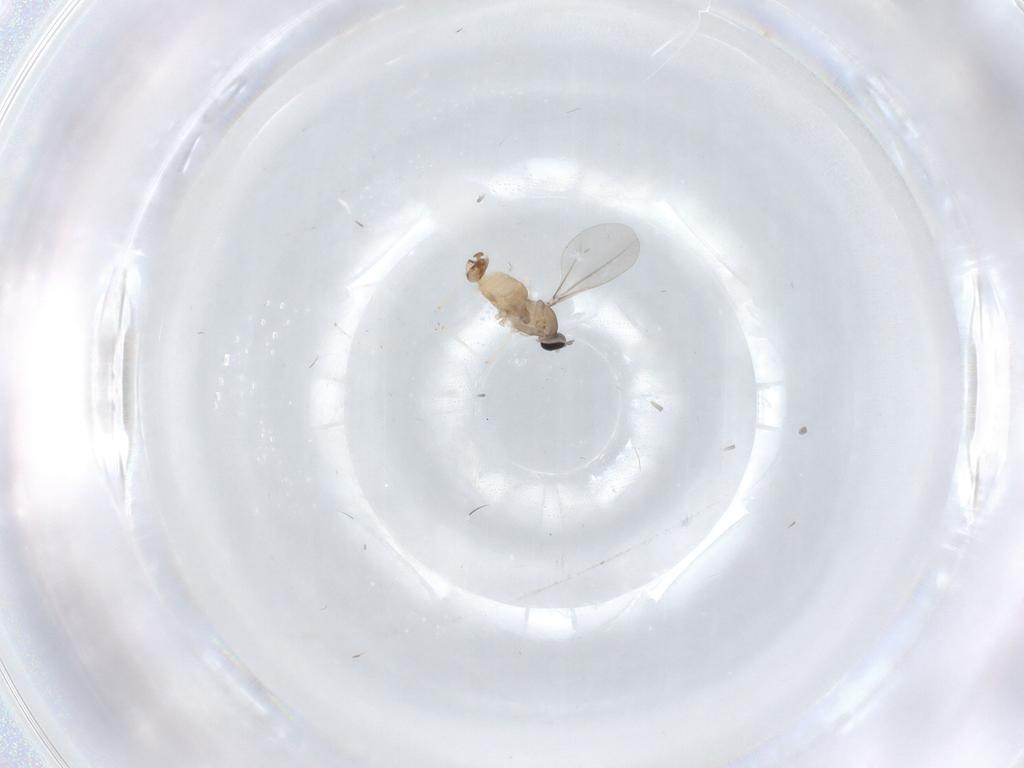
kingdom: Animalia
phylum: Arthropoda
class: Insecta
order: Diptera
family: Cecidomyiidae
